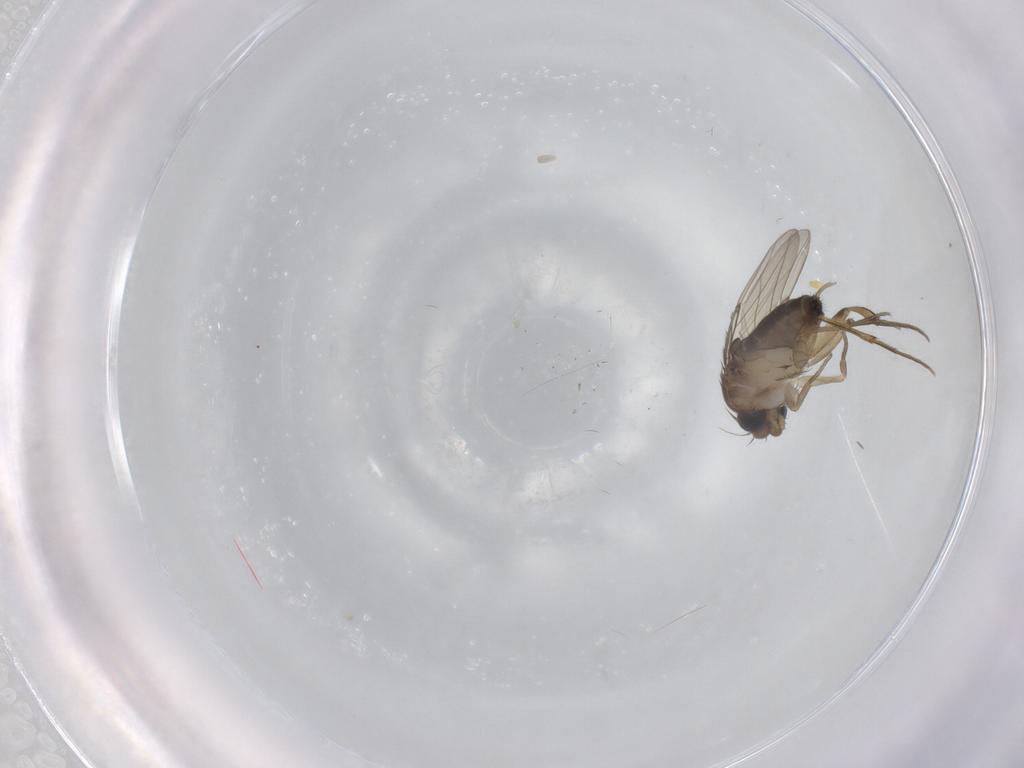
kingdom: Animalia
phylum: Arthropoda
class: Insecta
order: Diptera
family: Phoridae
